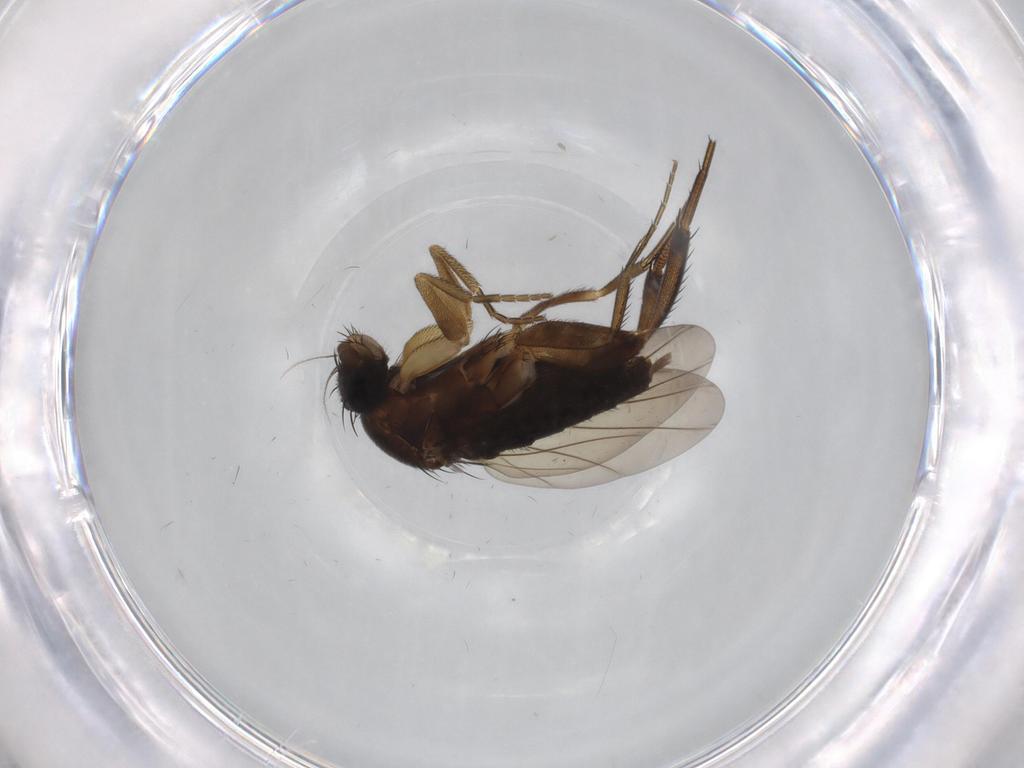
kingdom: Animalia
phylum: Arthropoda
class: Insecta
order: Diptera
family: Phoridae
